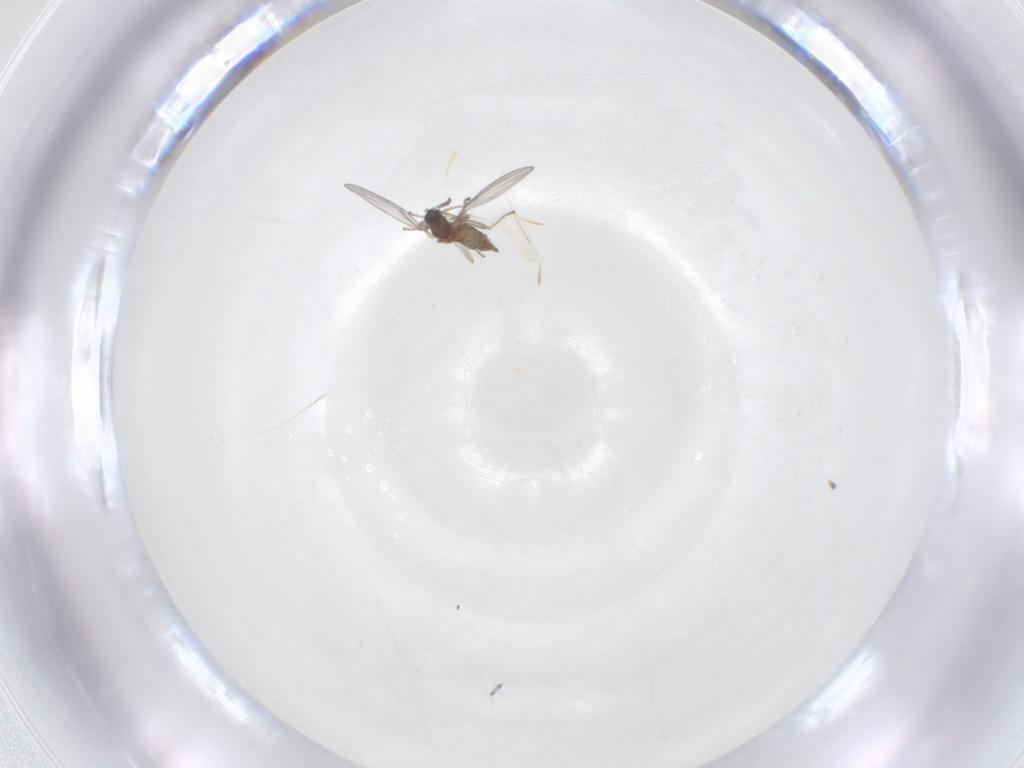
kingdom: Animalia
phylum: Arthropoda
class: Insecta
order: Diptera
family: Cecidomyiidae
